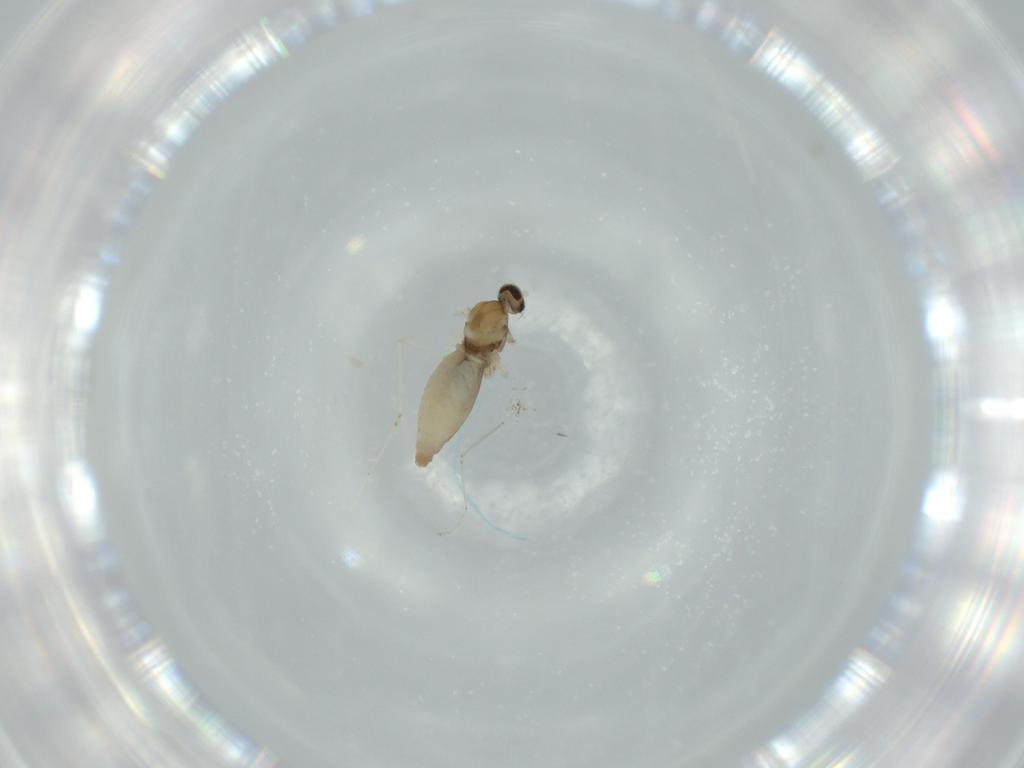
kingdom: Animalia
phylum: Arthropoda
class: Insecta
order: Diptera
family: Cecidomyiidae
